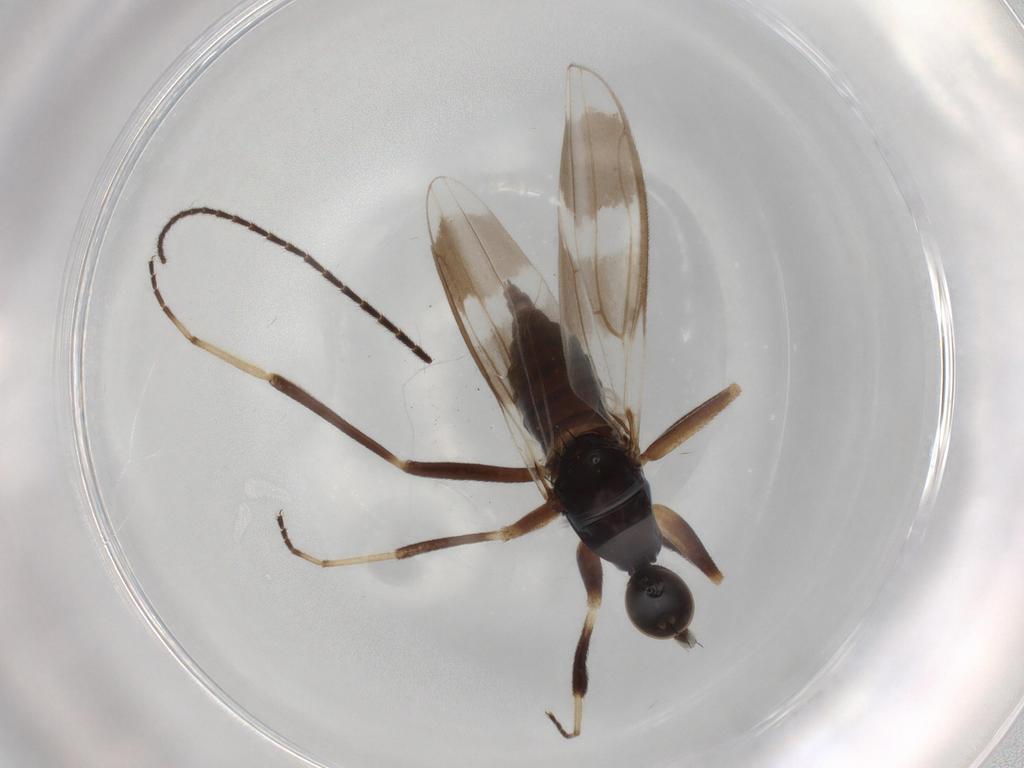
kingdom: Animalia
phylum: Arthropoda
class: Insecta
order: Diptera
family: Hybotidae
